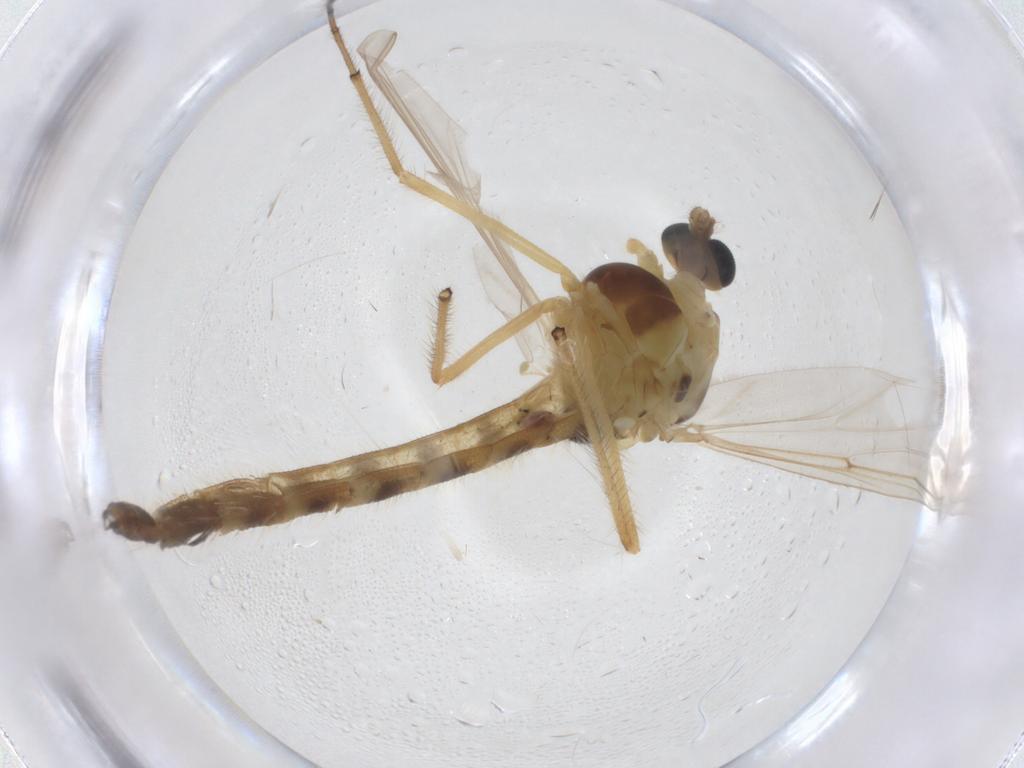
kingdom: Animalia
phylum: Arthropoda
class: Insecta
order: Diptera
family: Chironomidae
